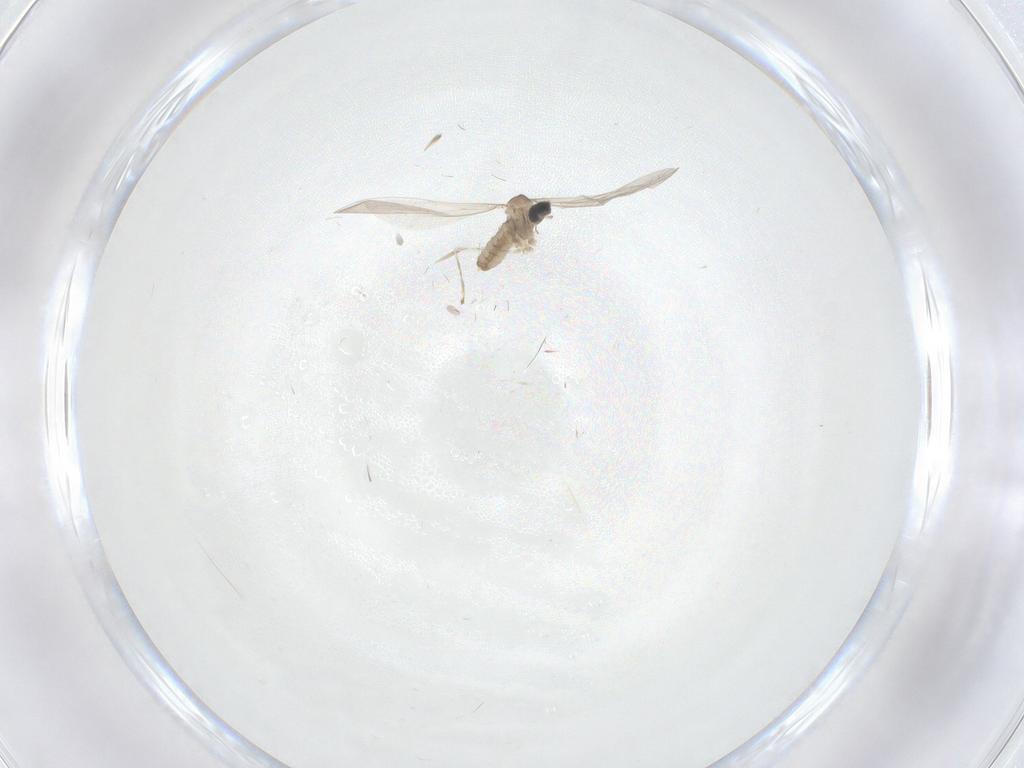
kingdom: Animalia
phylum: Arthropoda
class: Insecta
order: Diptera
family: Cecidomyiidae
